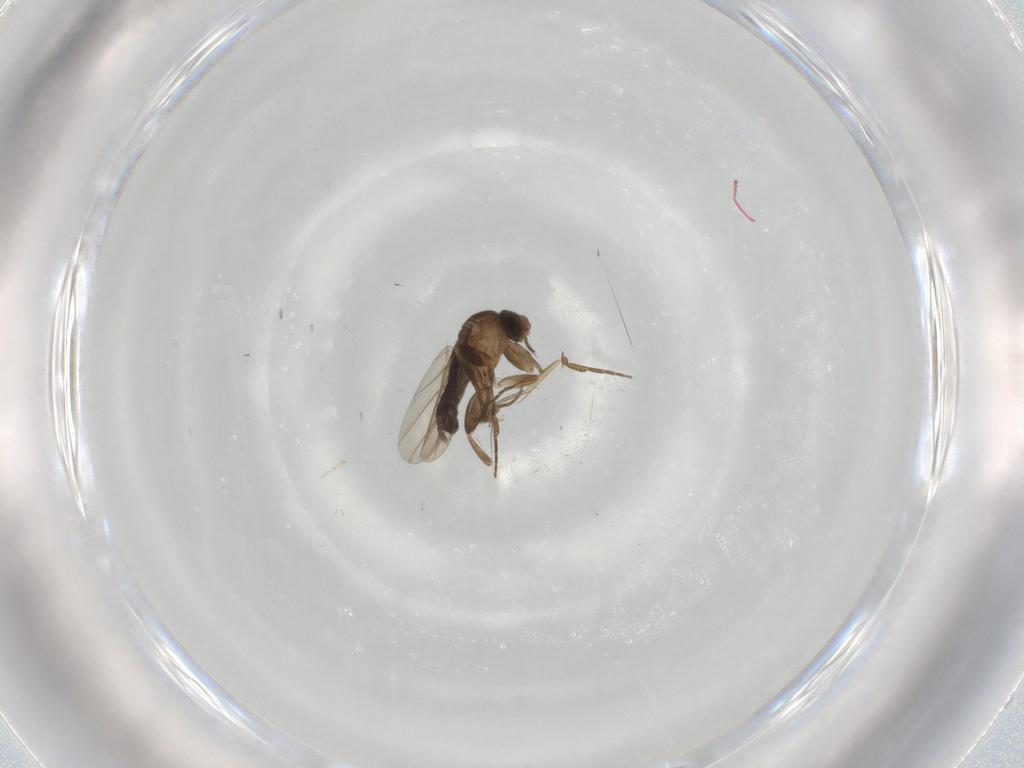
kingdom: Animalia
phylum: Arthropoda
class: Insecta
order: Diptera
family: Phoridae
